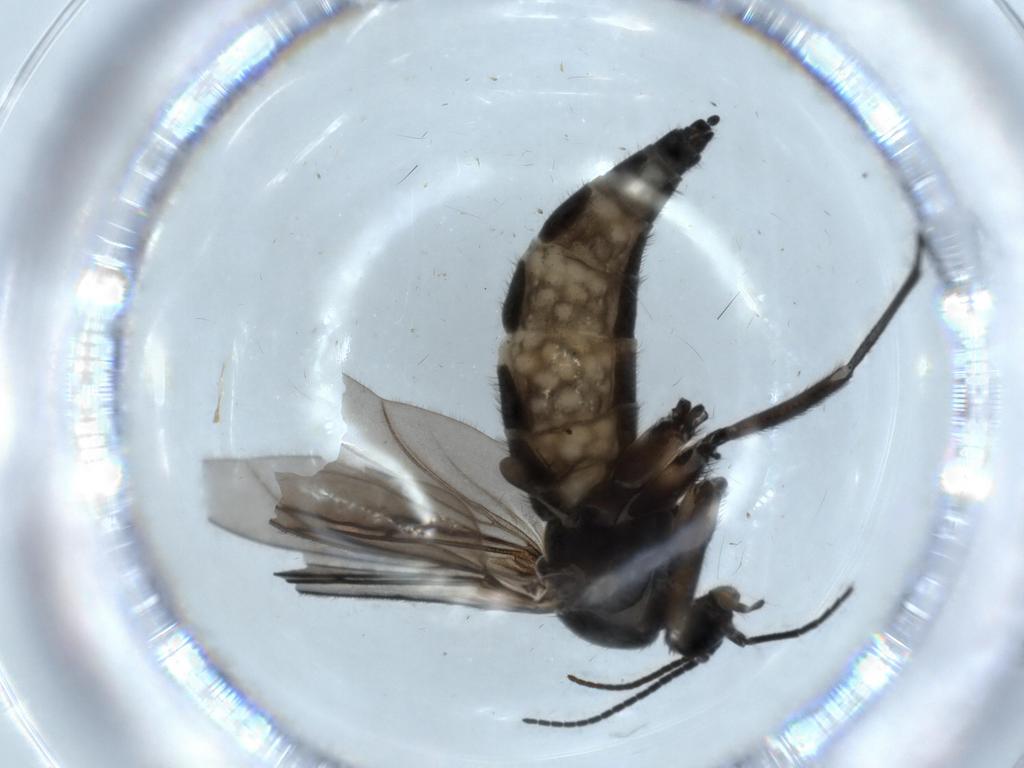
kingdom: Animalia
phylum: Arthropoda
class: Insecta
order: Diptera
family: Sciaridae
